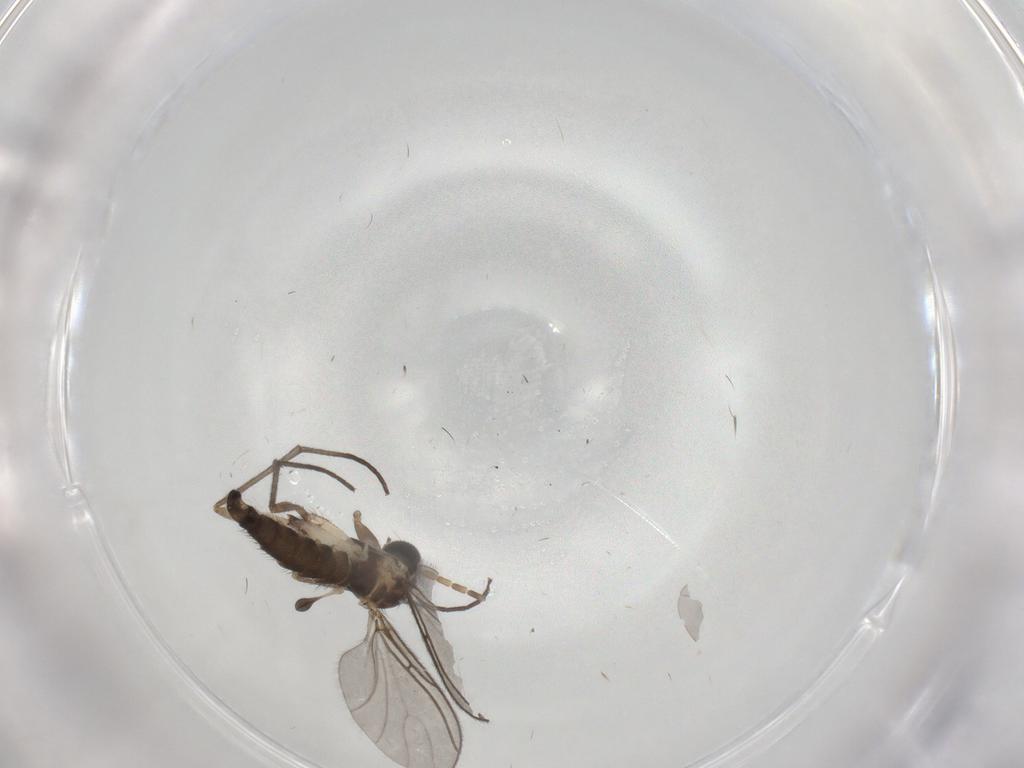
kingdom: Animalia
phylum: Arthropoda
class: Insecta
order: Diptera
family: Sciaridae
